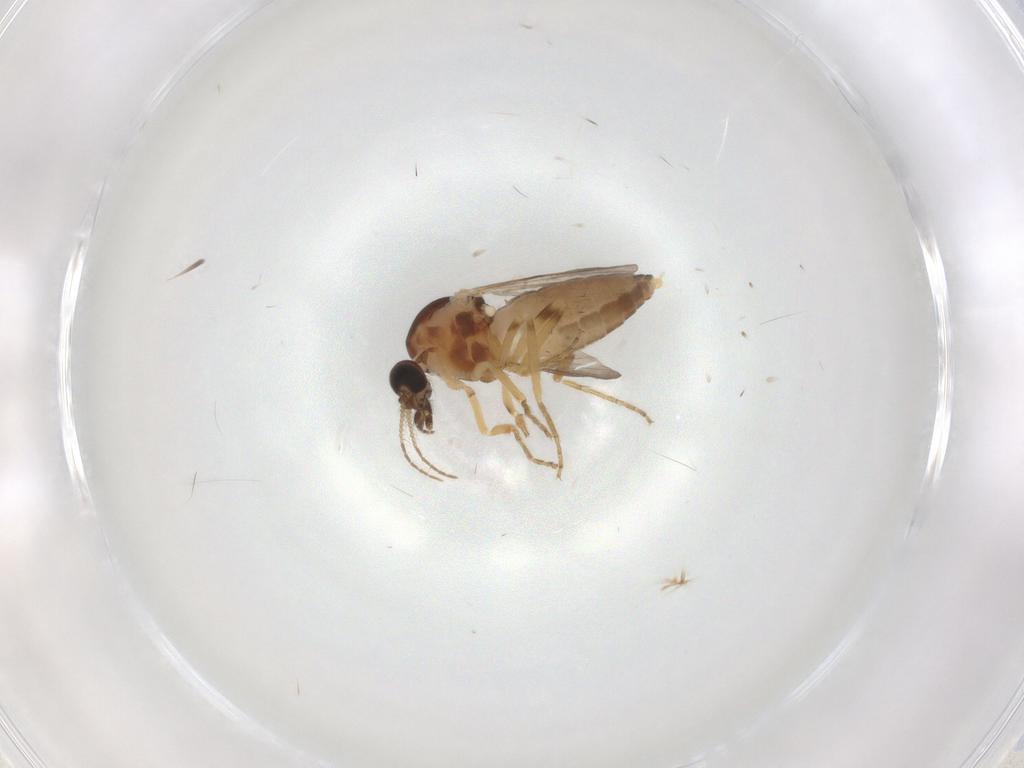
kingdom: Animalia
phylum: Arthropoda
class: Insecta
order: Diptera
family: Ceratopogonidae
